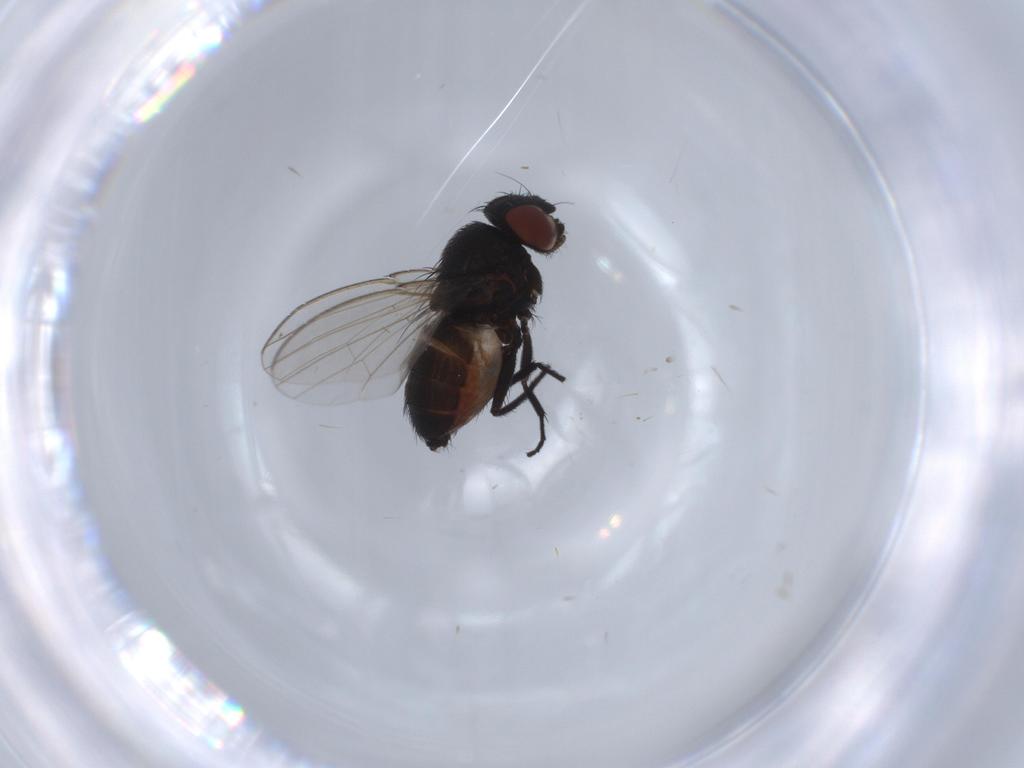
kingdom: Animalia
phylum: Arthropoda
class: Insecta
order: Diptera
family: Milichiidae
